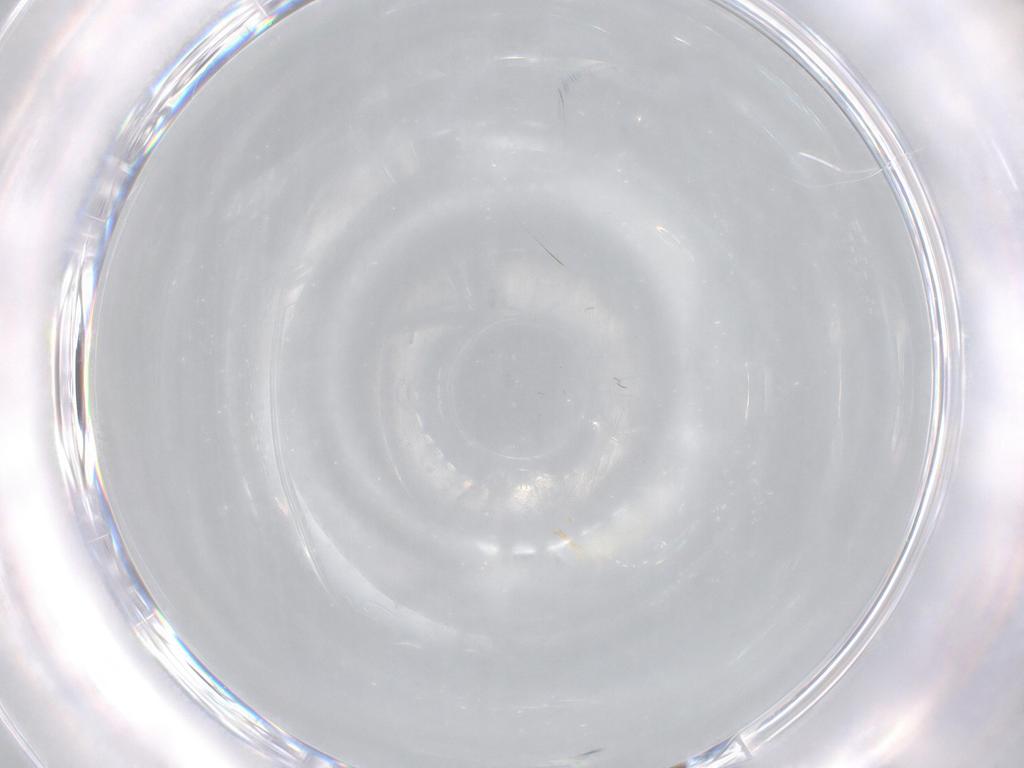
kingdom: Animalia
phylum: Arthropoda
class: Insecta
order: Diptera
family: Cecidomyiidae
